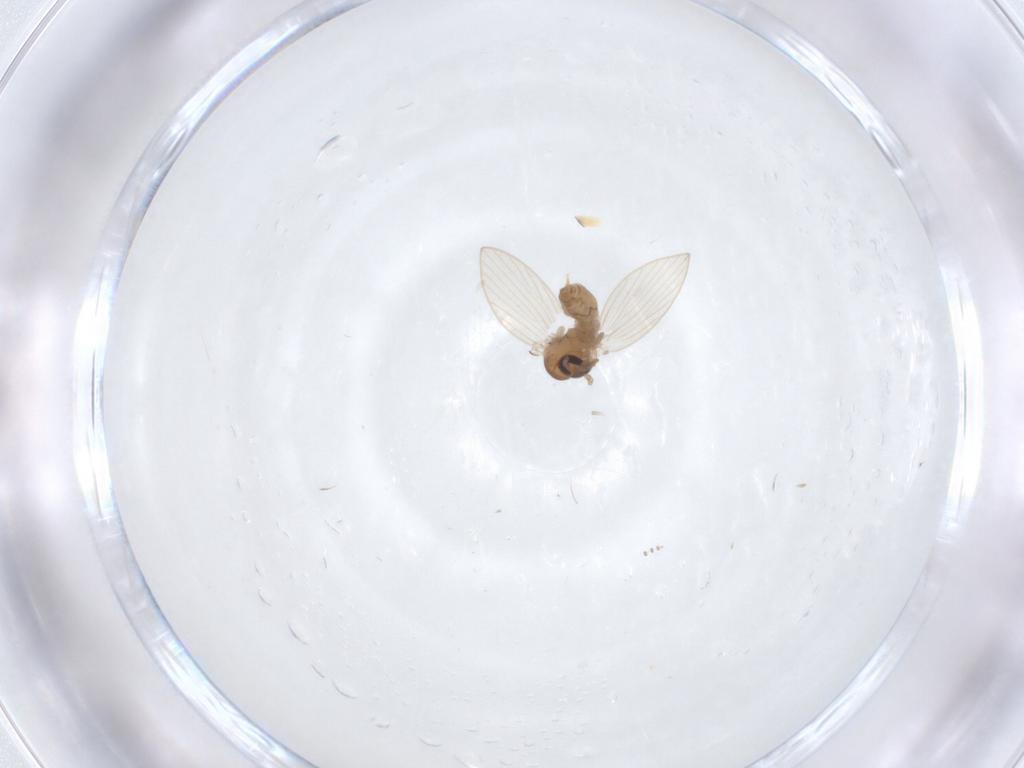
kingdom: Animalia
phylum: Arthropoda
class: Insecta
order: Diptera
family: Psychodidae
